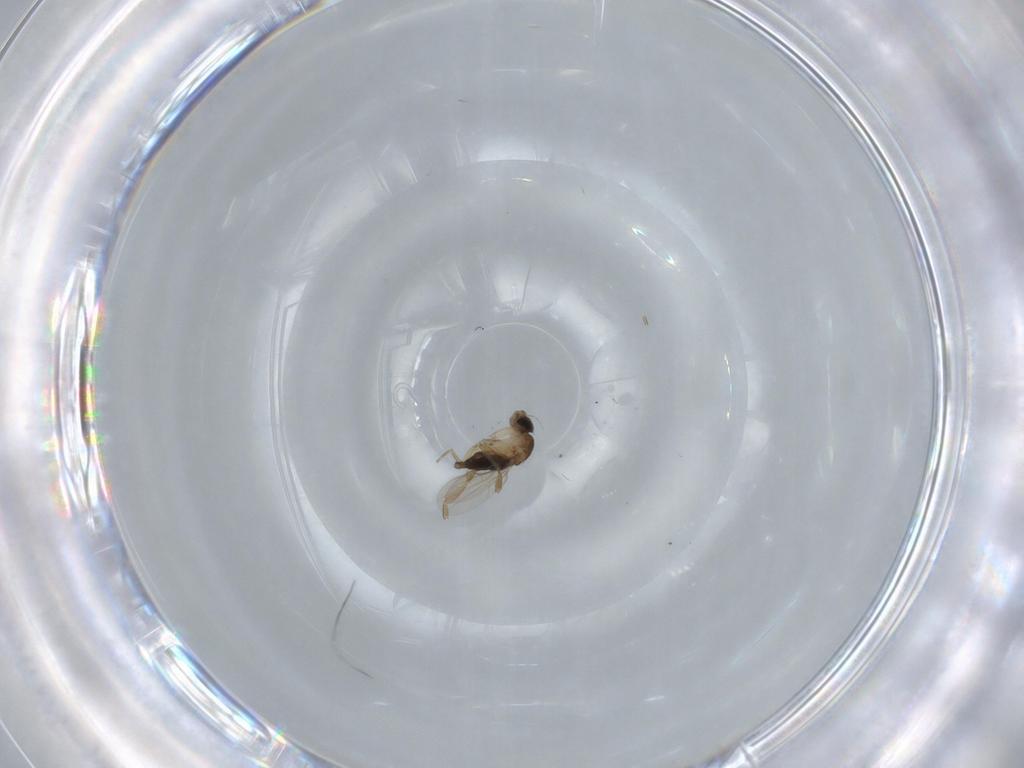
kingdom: Animalia
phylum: Arthropoda
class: Insecta
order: Diptera
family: Phoridae
